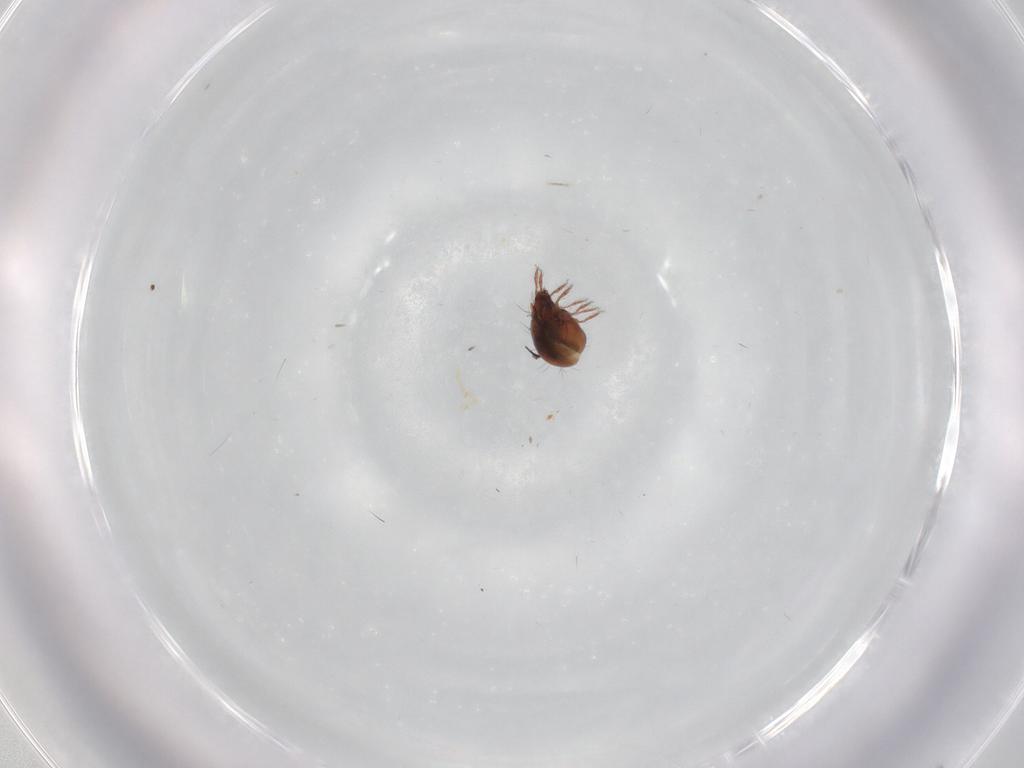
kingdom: Animalia
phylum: Arthropoda
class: Arachnida
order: Sarcoptiformes
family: Humerobatidae
